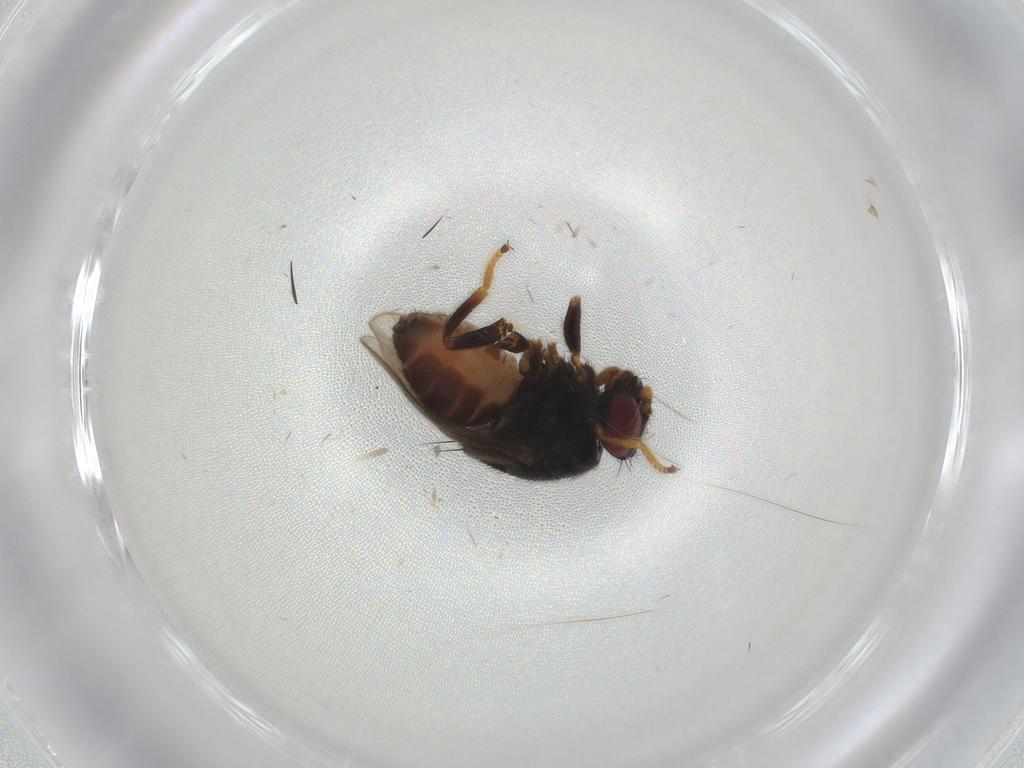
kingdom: Animalia
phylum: Arthropoda
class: Insecta
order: Diptera
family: Chloropidae
